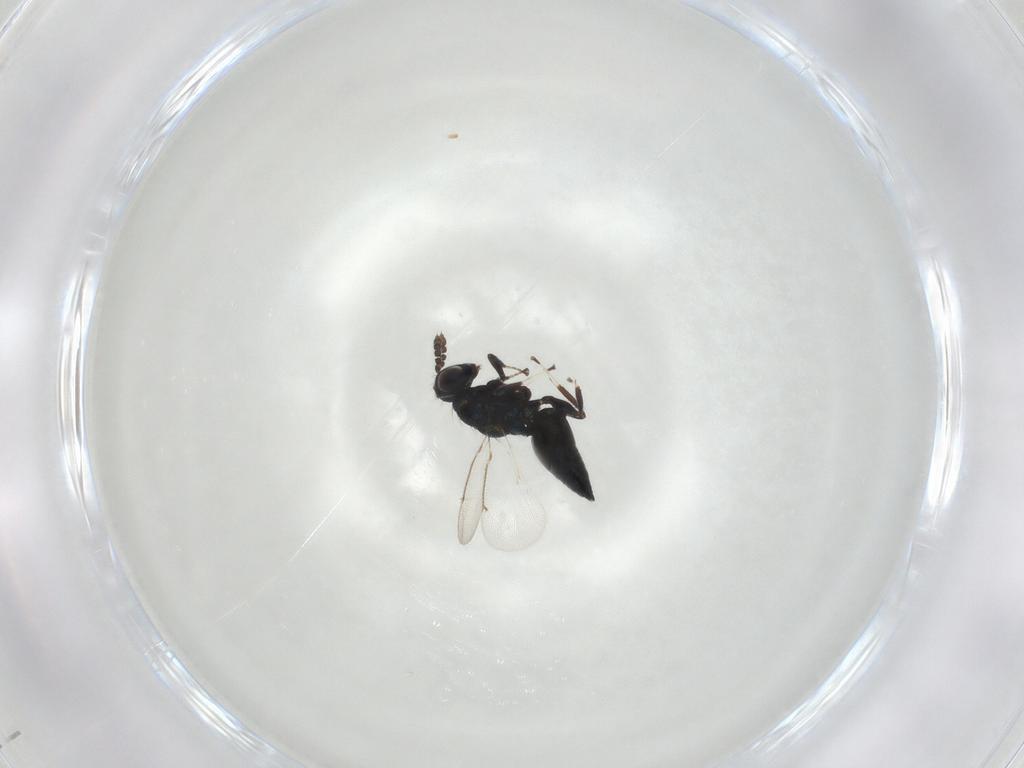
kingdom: Animalia
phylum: Arthropoda
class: Insecta
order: Hymenoptera
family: Eulophidae
